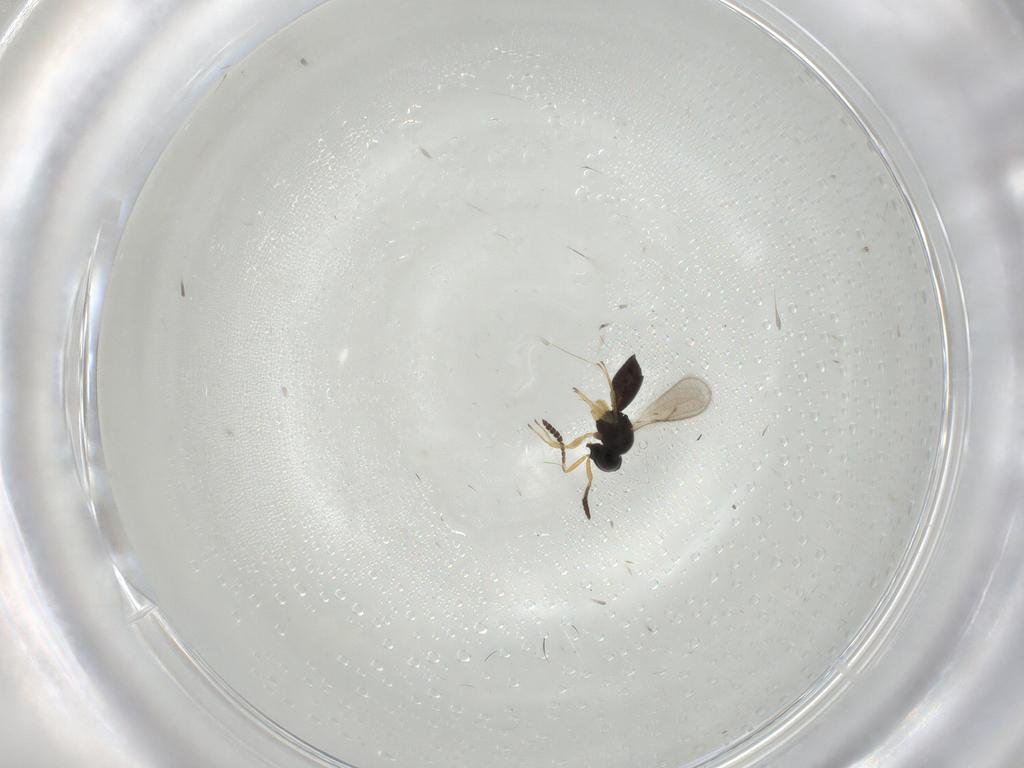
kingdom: Animalia
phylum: Arthropoda
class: Insecta
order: Hymenoptera
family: Scelionidae
